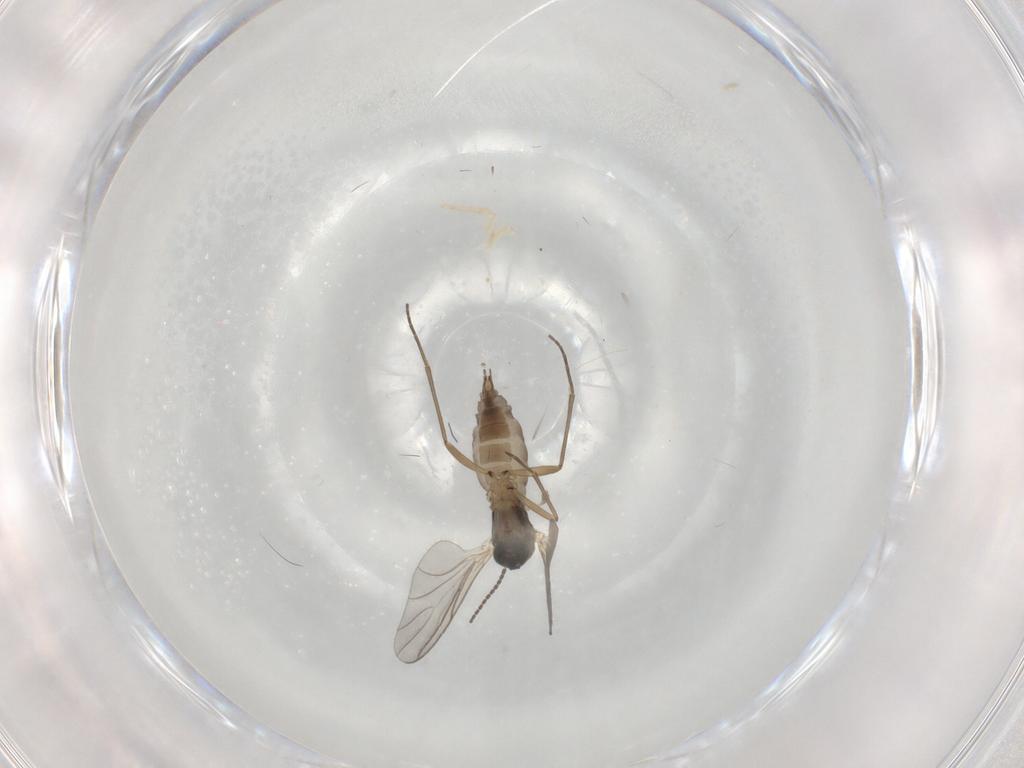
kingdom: Animalia
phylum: Arthropoda
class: Insecta
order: Diptera
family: Sciaridae
